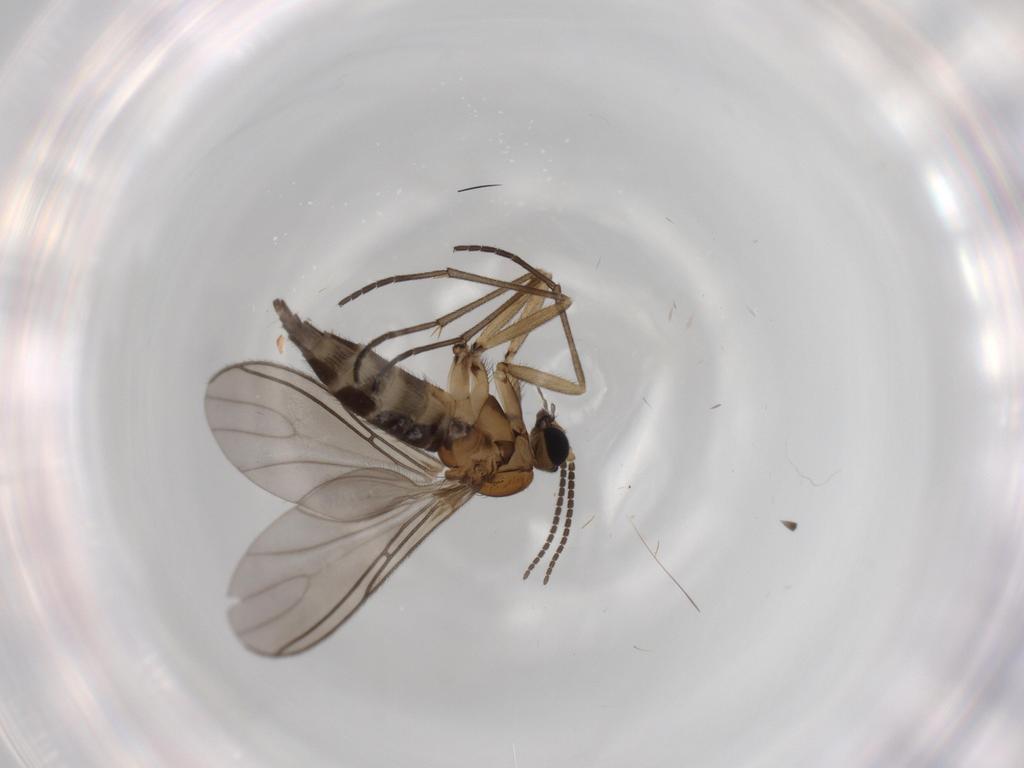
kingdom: Animalia
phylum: Arthropoda
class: Insecta
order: Diptera
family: Sciaridae
